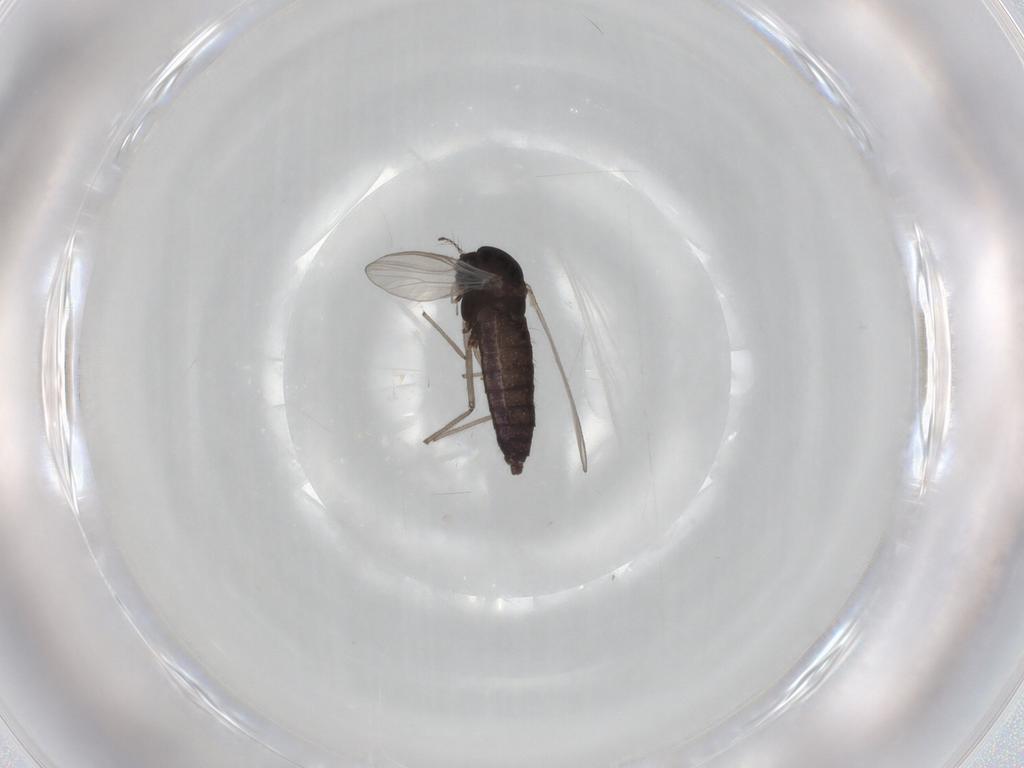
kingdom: Animalia
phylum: Arthropoda
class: Insecta
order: Diptera
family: Chironomidae
